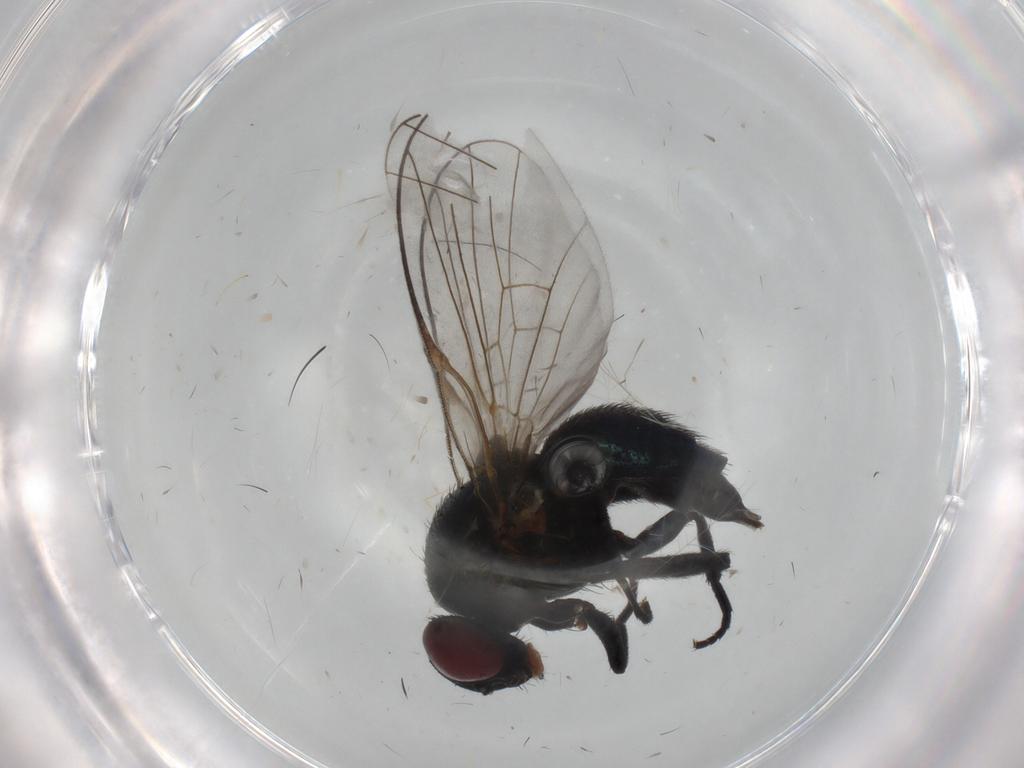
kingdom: Animalia
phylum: Arthropoda
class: Insecta
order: Diptera
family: Agromyzidae
